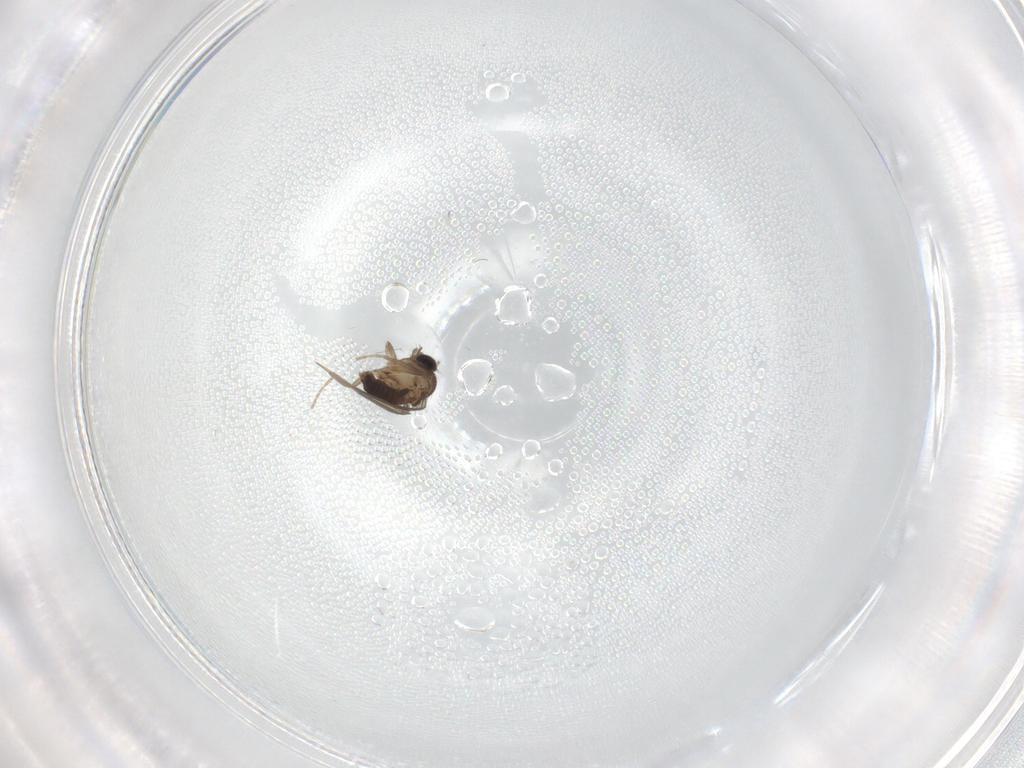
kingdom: Animalia
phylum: Arthropoda
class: Insecta
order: Diptera
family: Phoridae
